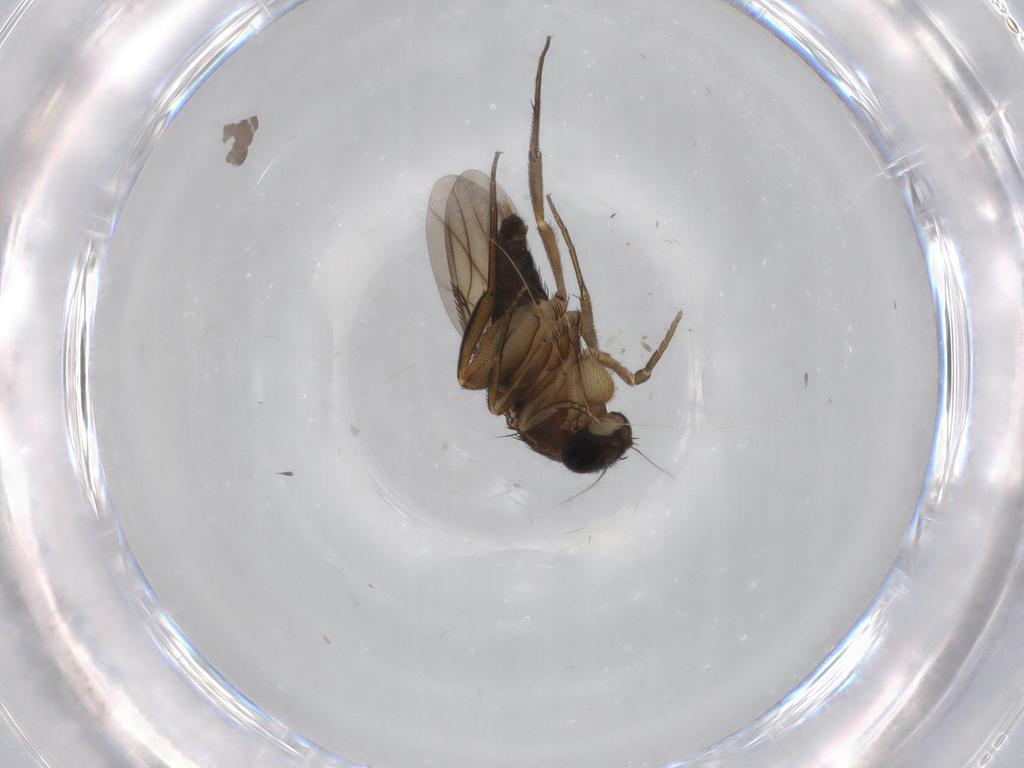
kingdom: Animalia
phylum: Arthropoda
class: Insecta
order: Diptera
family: Phoridae
